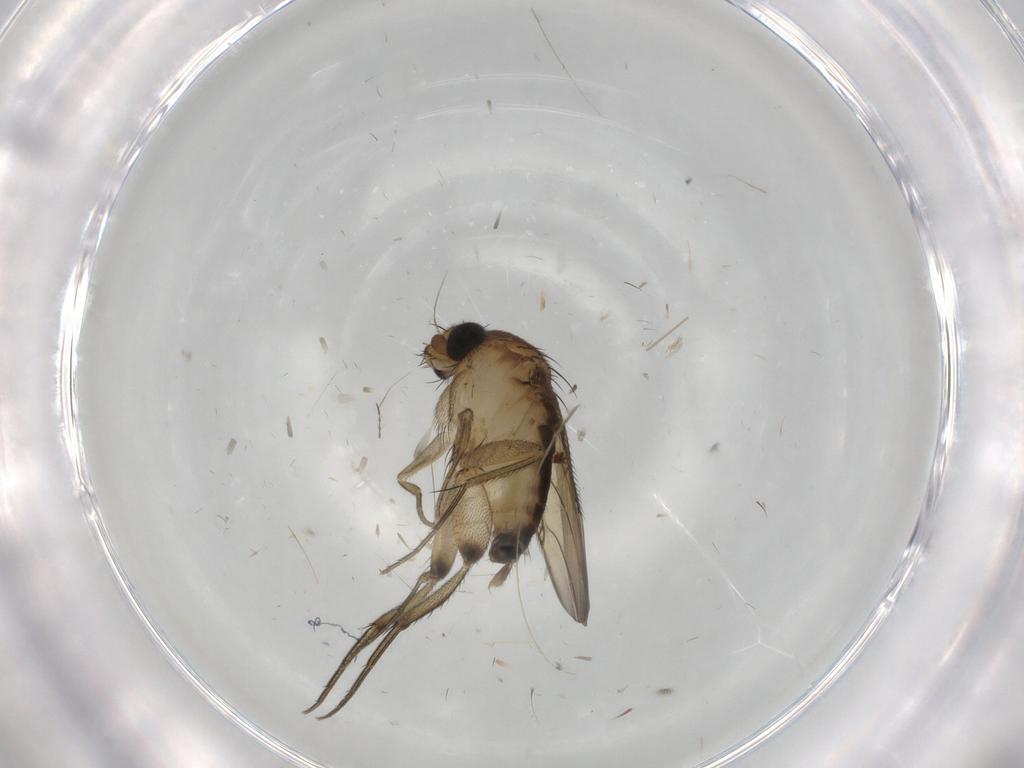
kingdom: Animalia
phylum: Arthropoda
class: Insecta
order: Diptera
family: Phoridae
